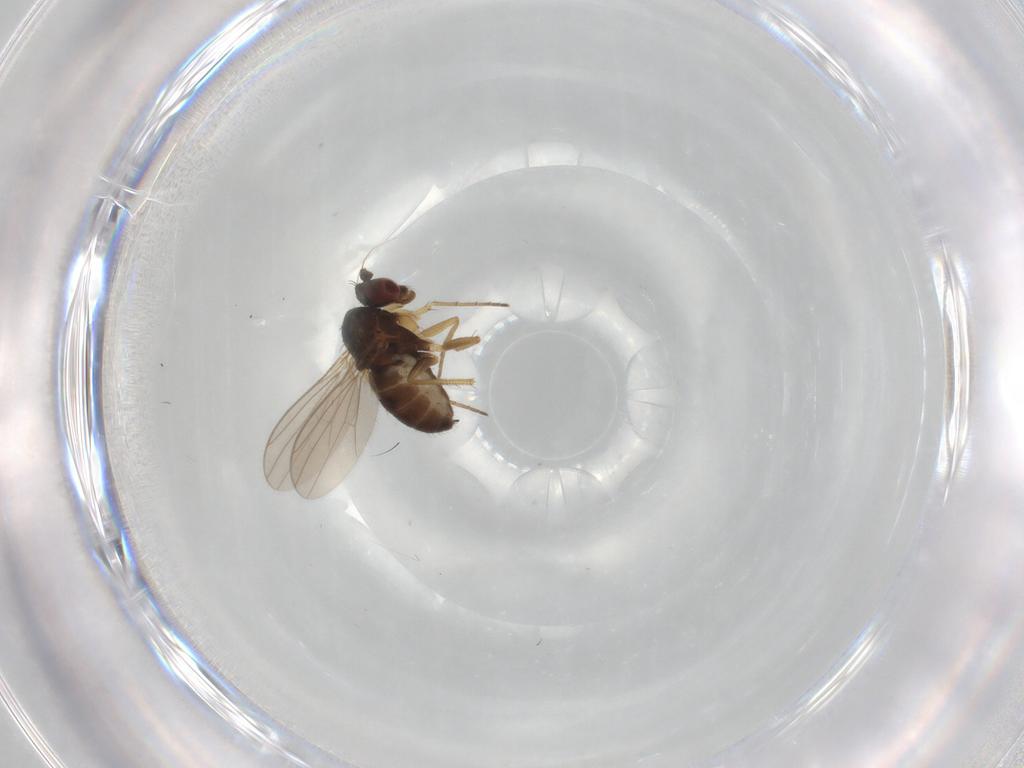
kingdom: Animalia
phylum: Arthropoda
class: Insecta
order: Diptera
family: Dolichopodidae
